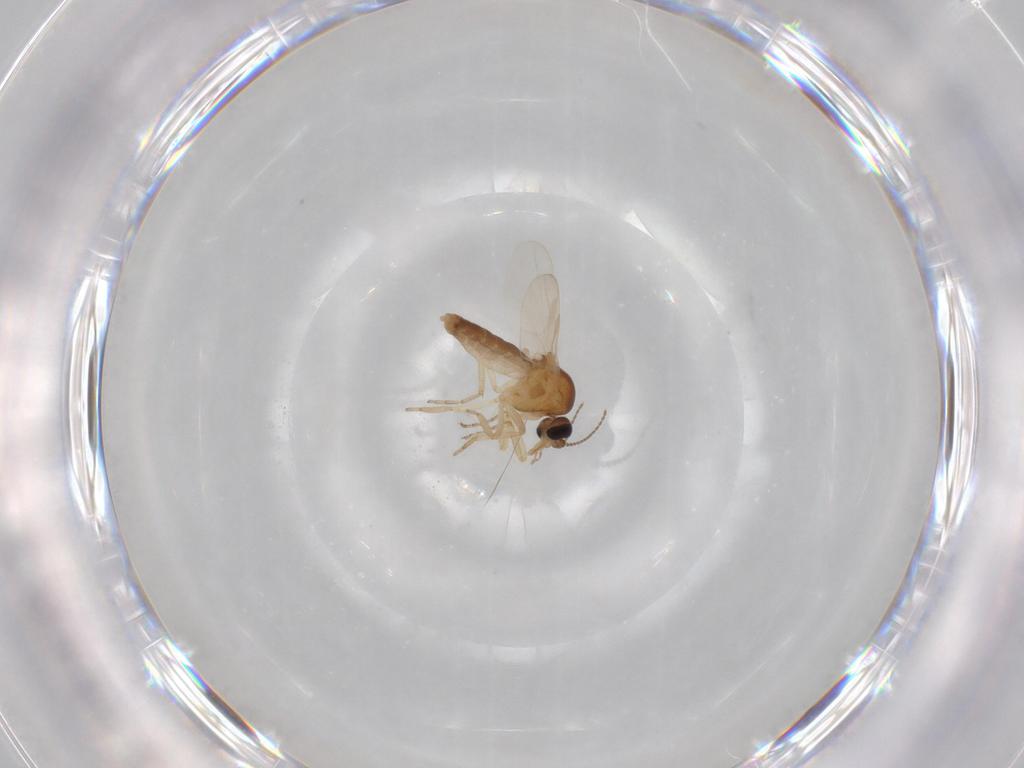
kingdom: Animalia
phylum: Arthropoda
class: Insecta
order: Diptera
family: Ceratopogonidae
